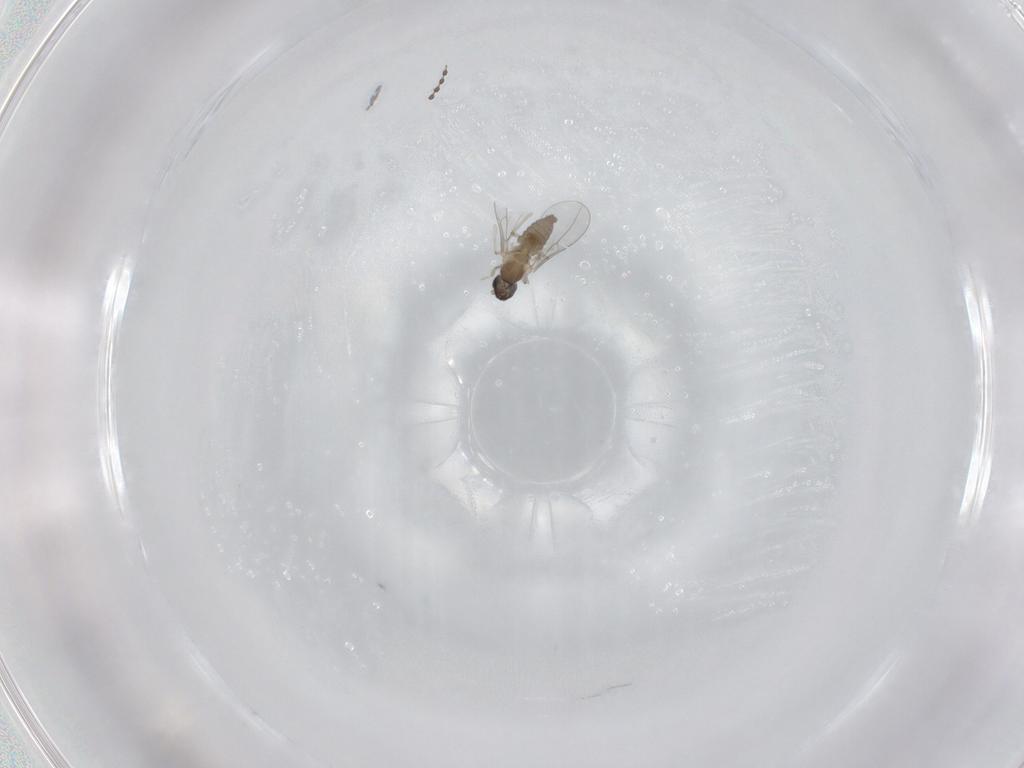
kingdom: Animalia
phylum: Arthropoda
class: Insecta
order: Diptera
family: Cecidomyiidae
